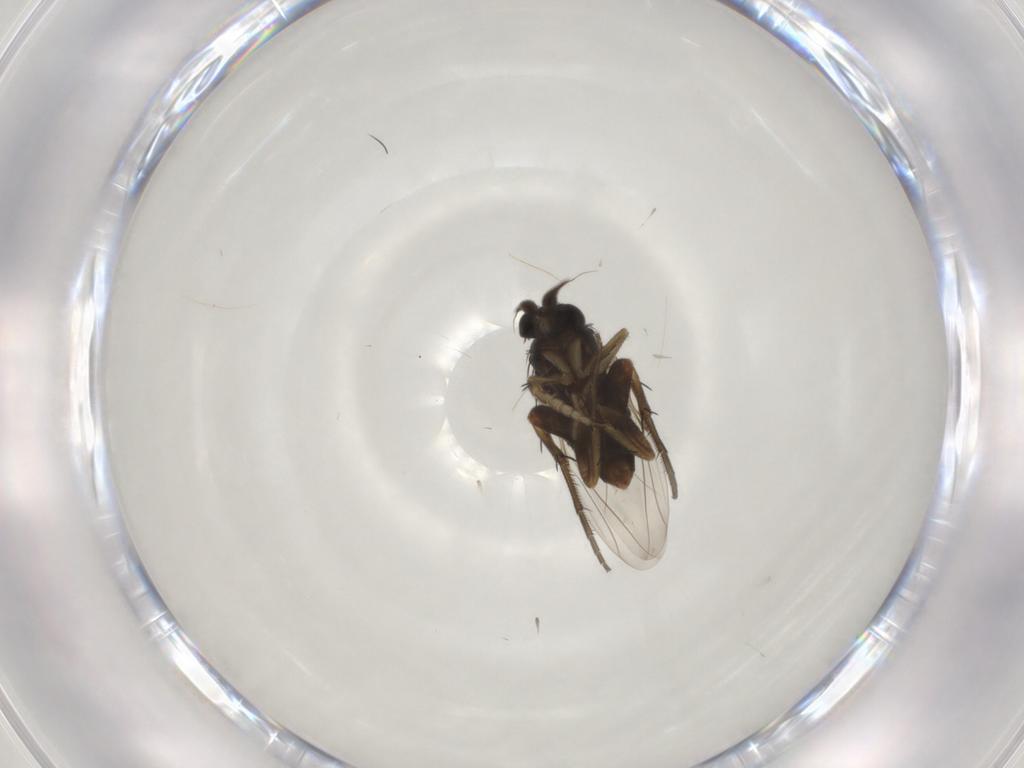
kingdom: Animalia
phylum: Arthropoda
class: Insecta
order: Diptera
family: Phoridae
